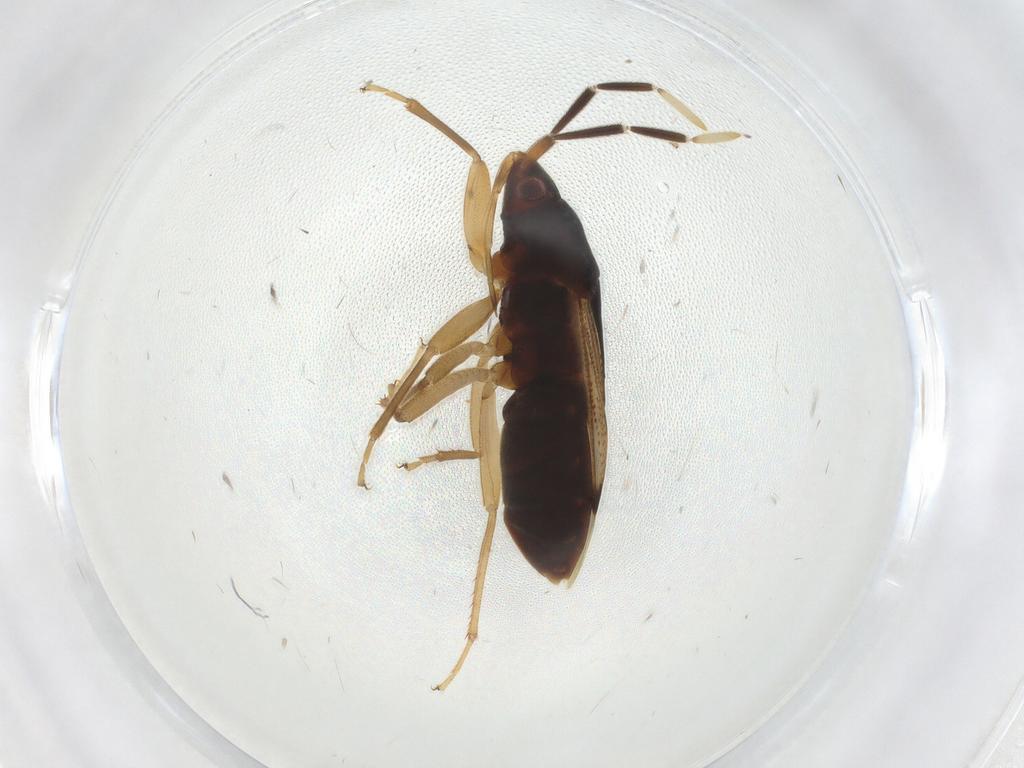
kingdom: Animalia
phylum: Arthropoda
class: Insecta
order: Hemiptera
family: Rhyparochromidae
